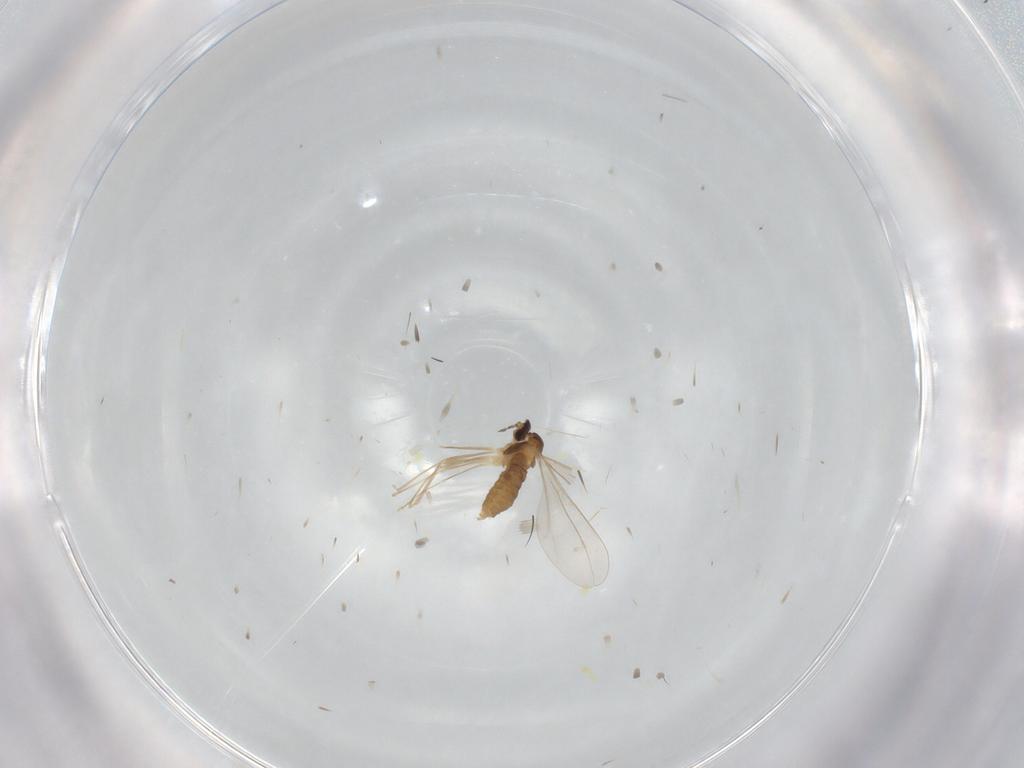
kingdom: Animalia
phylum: Arthropoda
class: Insecta
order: Diptera
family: Cecidomyiidae
